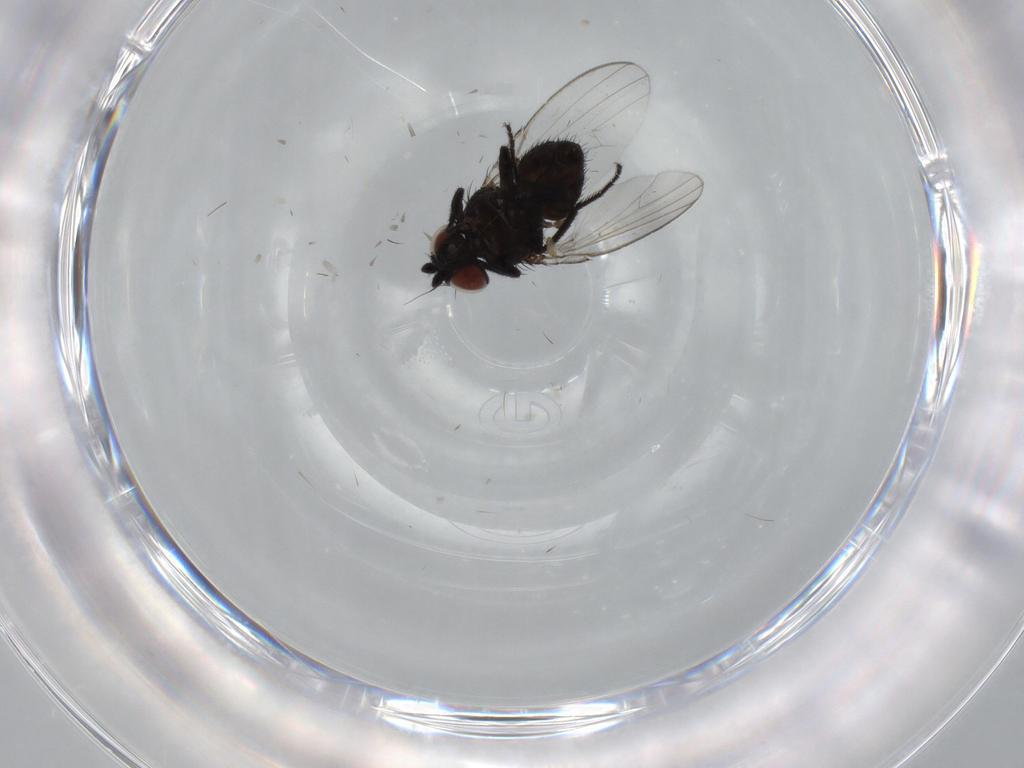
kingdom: Animalia
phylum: Arthropoda
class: Insecta
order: Diptera
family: Milichiidae
